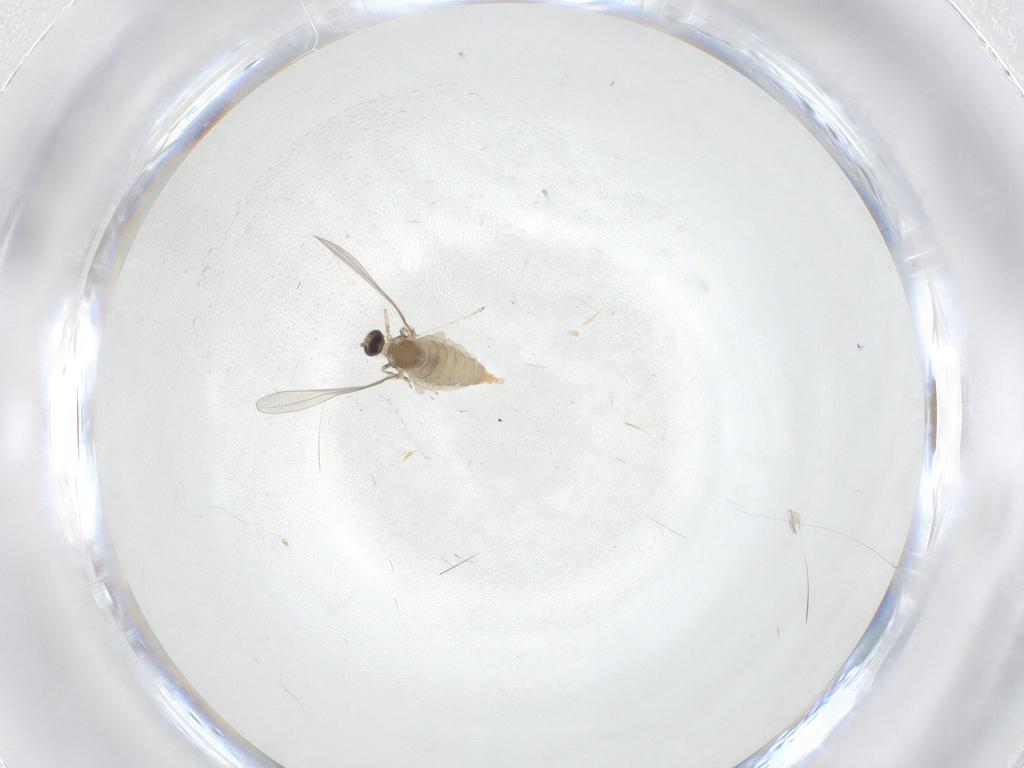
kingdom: Animalia
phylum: Arthropoda
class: Insecta
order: Diptera
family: Cecidomyiidae
